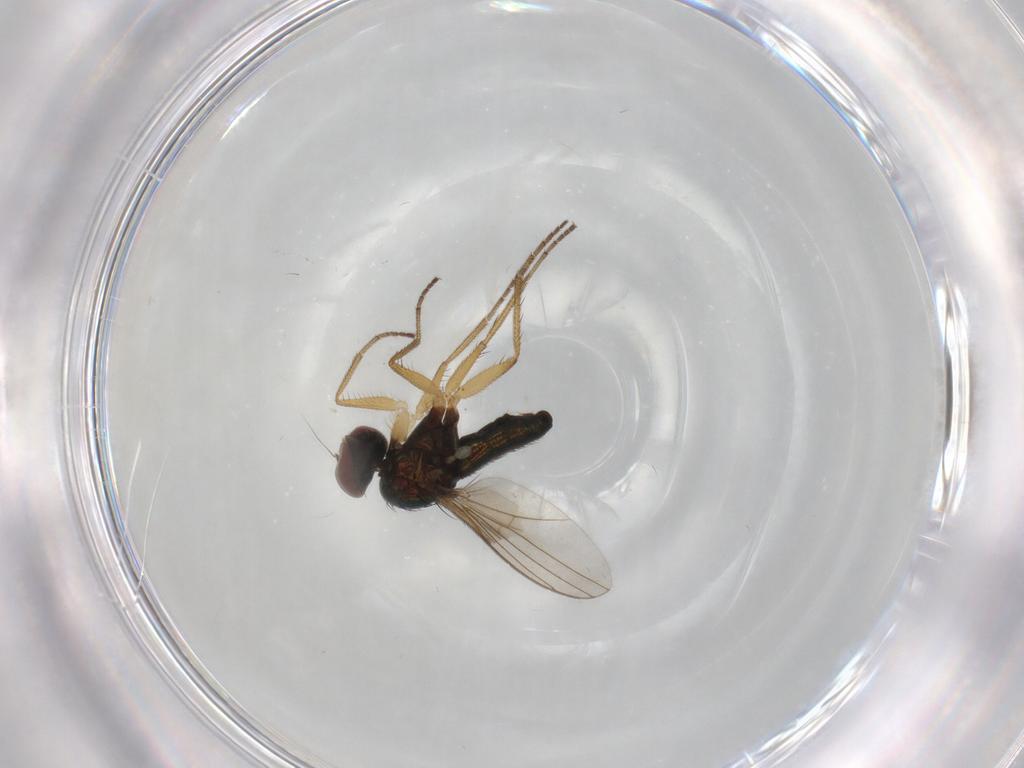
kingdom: Animalia
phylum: Arthropoda
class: Insecta
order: Diptera
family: Dolichopodidae
